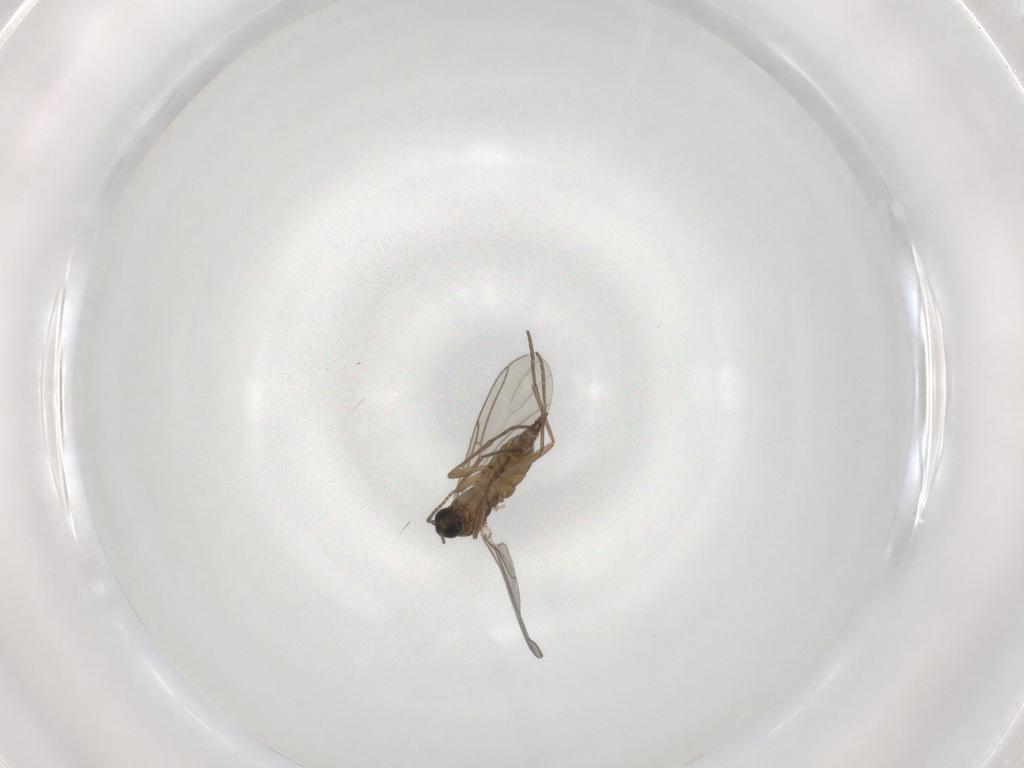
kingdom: Animalia
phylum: Arthropoda
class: Insecta
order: Diptera
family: Sciaridae
